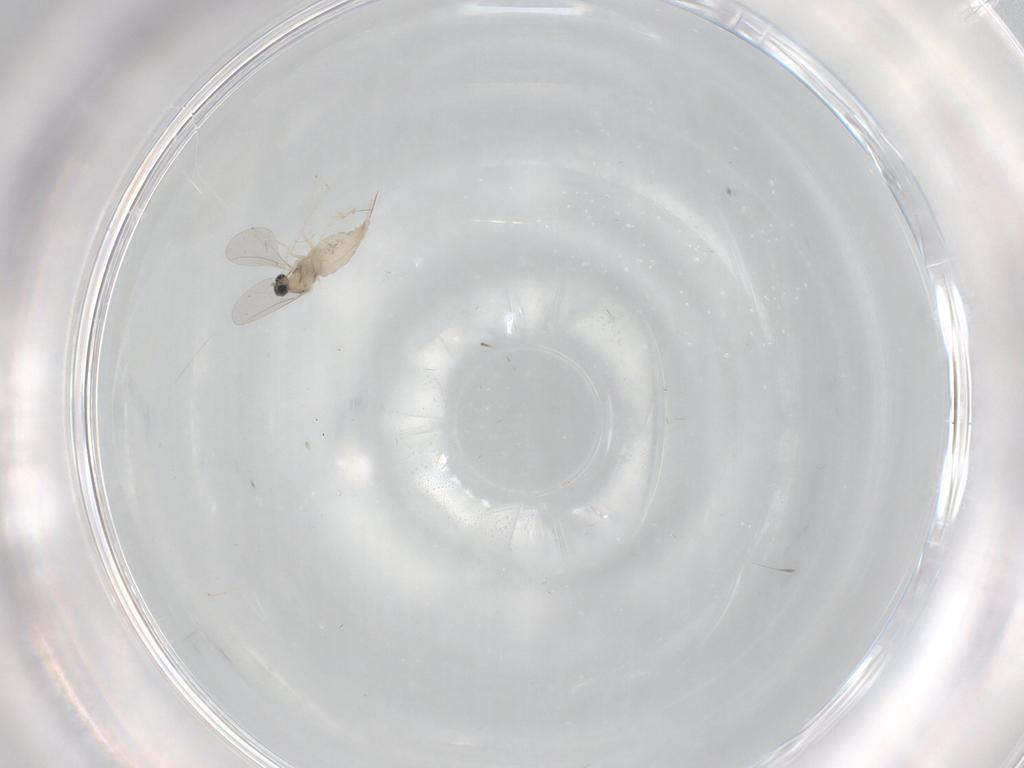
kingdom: Animalia
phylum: Arthropoda
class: Insecta
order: Diptera
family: Cecidomyiidae
